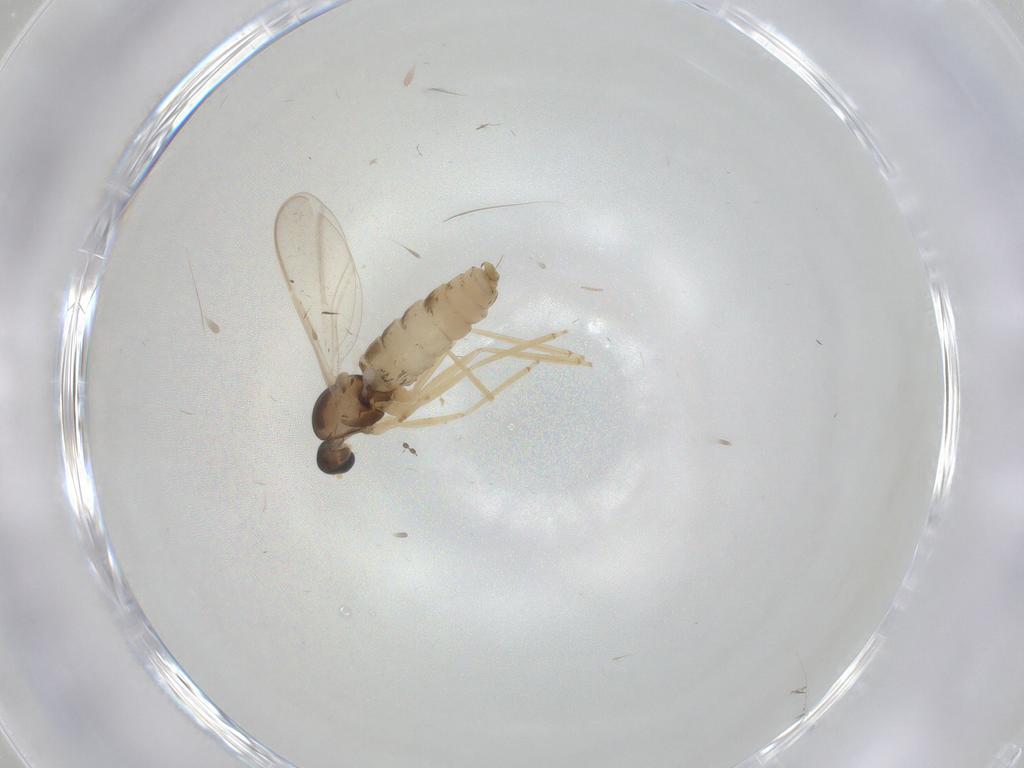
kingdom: Animalia
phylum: Arthropoda
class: Insecta
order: Diptera
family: Cecidomyiidae
